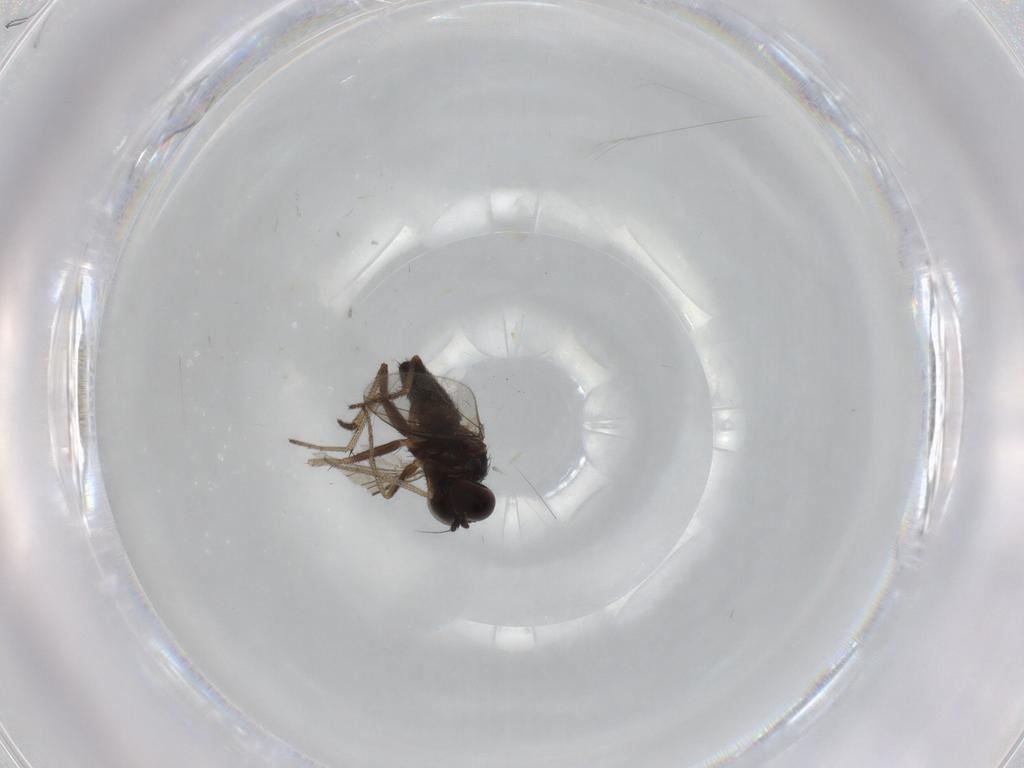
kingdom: Animalia
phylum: Arthropoda
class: Insecta
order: Diptera
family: Dolichopodidae
